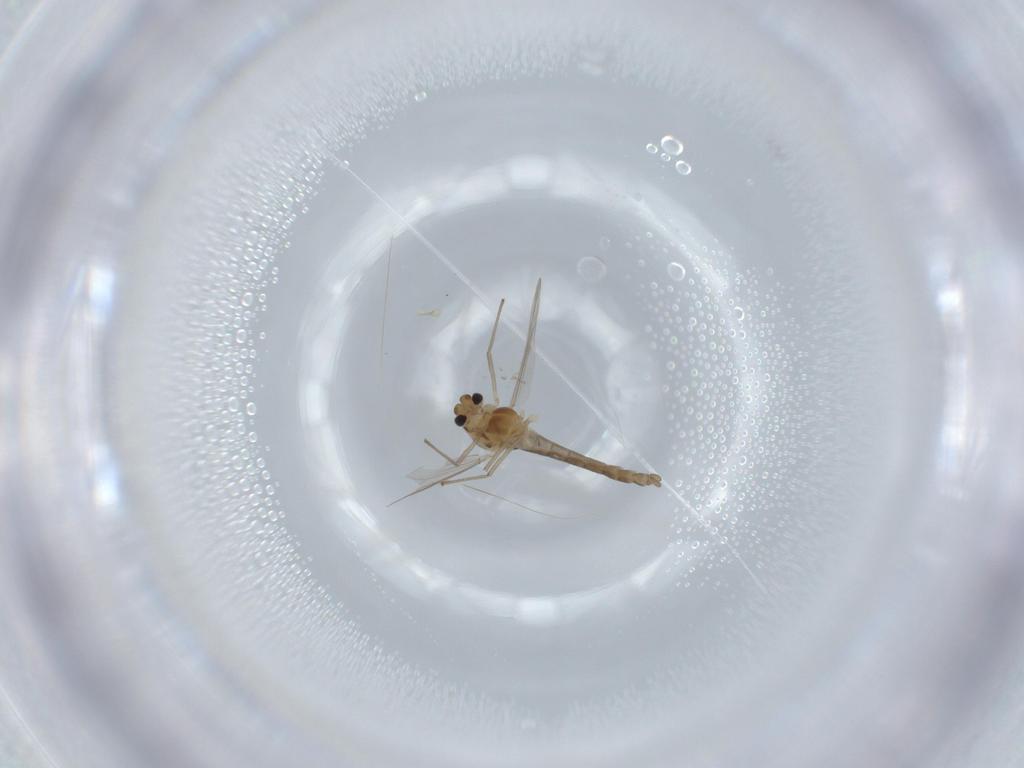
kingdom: Animalia
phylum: Arthropoda
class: Insecta
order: Diptera
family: Chironomidae
